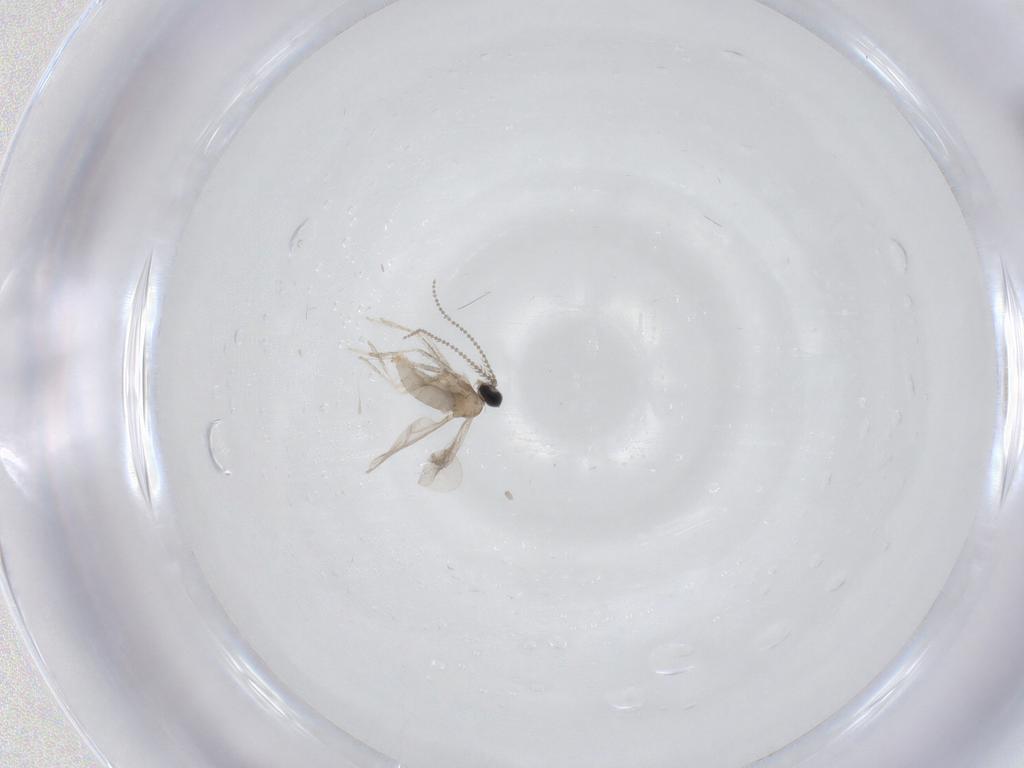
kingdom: Animalia
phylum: Arthropoda
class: Insecta
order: Diptera
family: Cecidomyiidae
